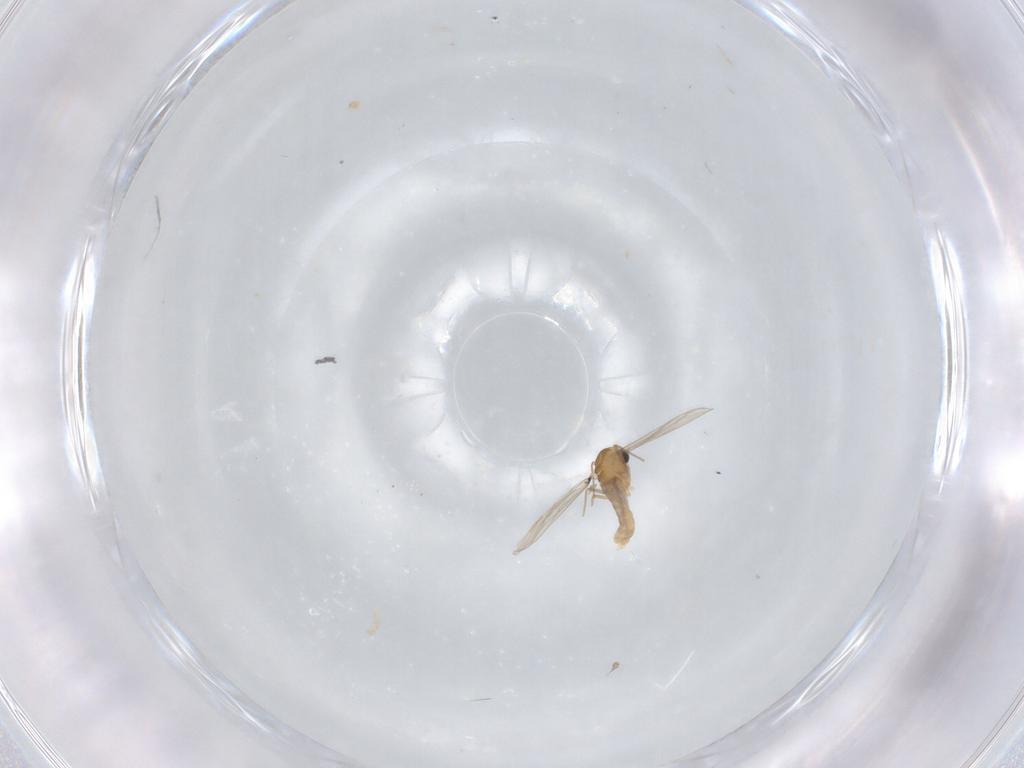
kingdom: Animalia
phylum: Arthropoda
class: Insecta
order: Diptera
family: Chironomidae
